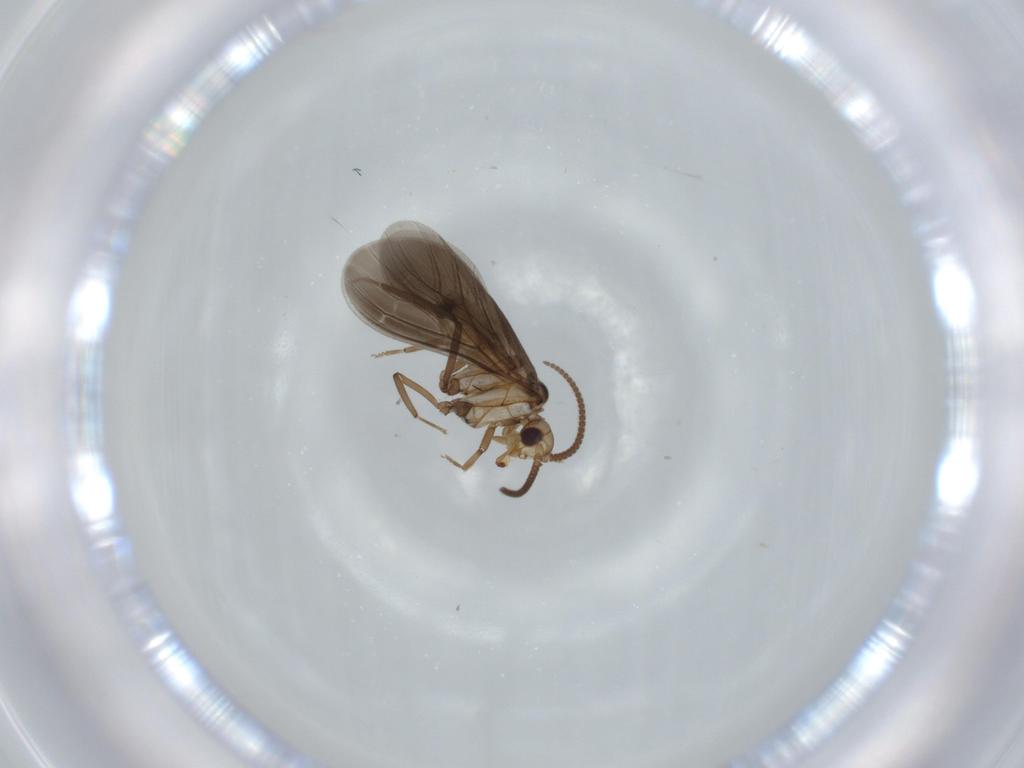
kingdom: Animalia
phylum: Arthropoda
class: Insecta
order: Neuroptera
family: Coniopterygidae
